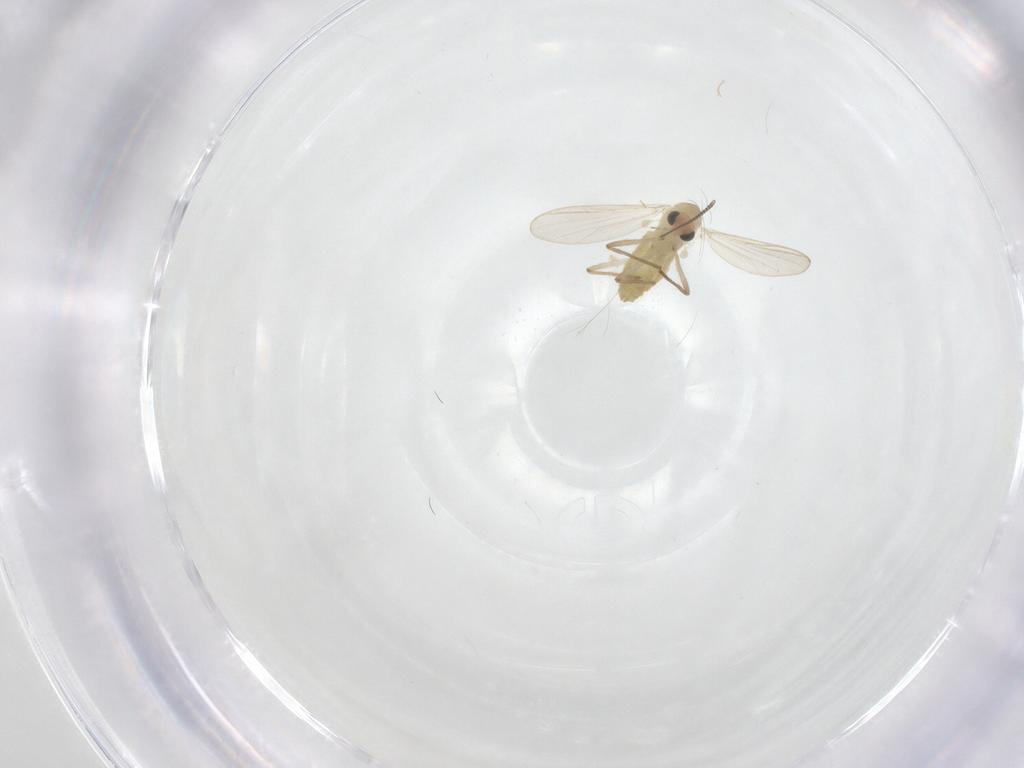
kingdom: Animalia
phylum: Arthropoda
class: Insecta
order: Diptera
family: Chironomidae
